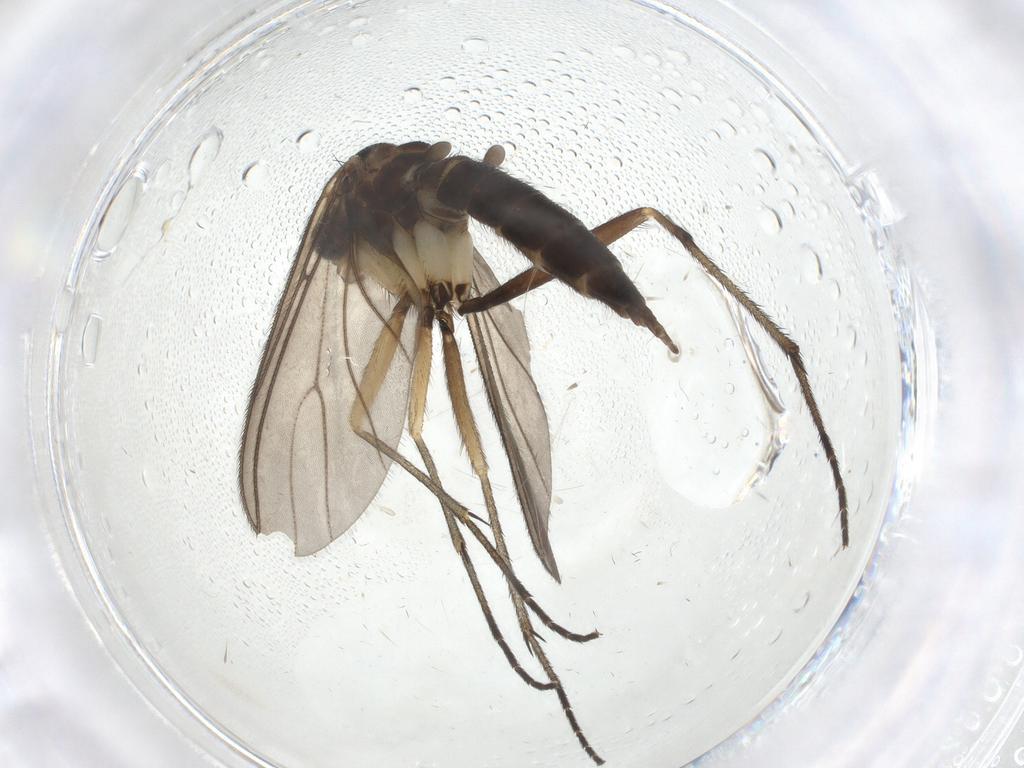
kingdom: Animalia
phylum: Arthropoda
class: Insecta
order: Diptera
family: Sciaridae
